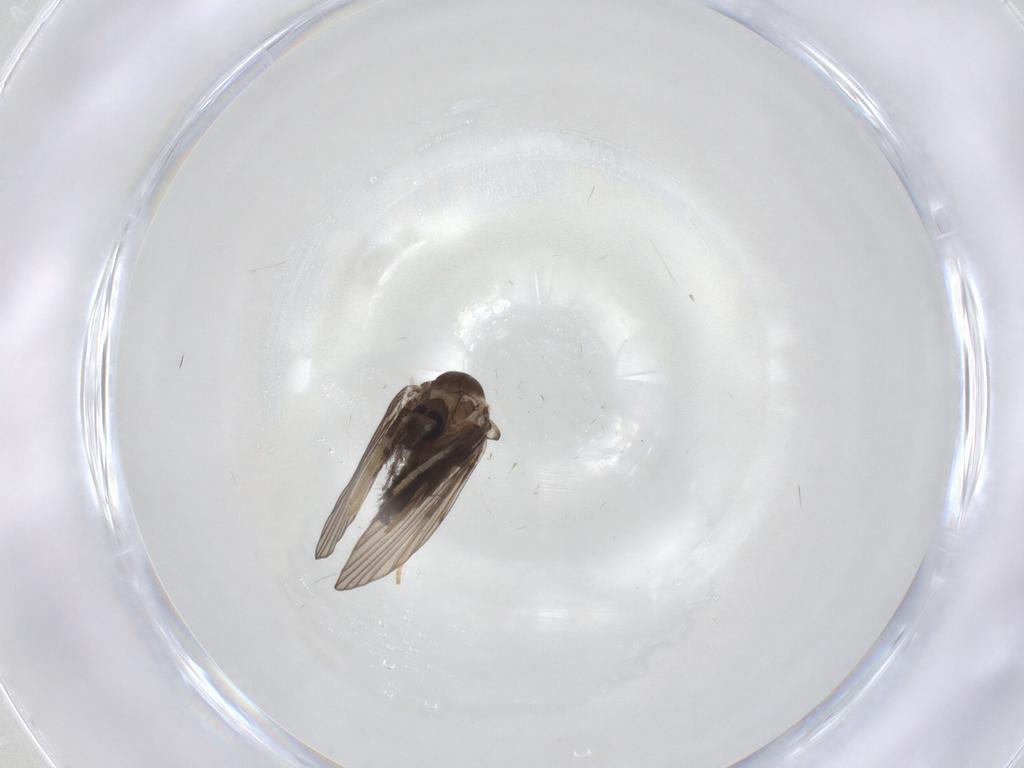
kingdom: Animalia
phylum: Arthropoda
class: Insecta
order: Diptera
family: Psychodidae
